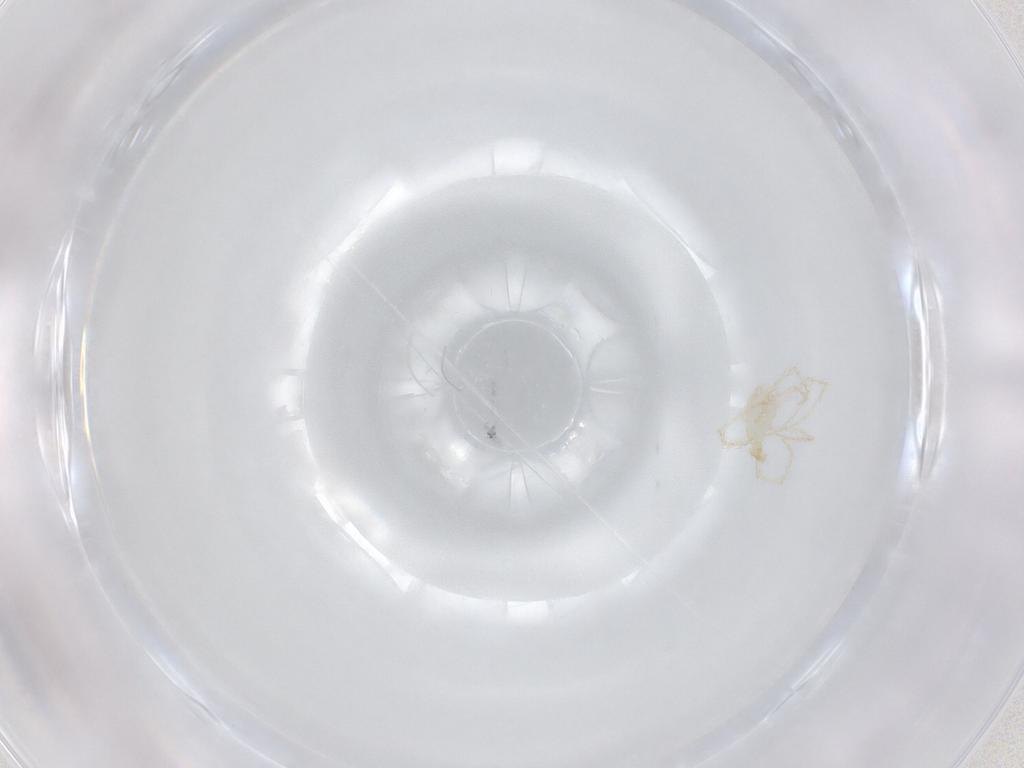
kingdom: Animalia
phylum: Arthropoda
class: Arachnida
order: Trombidiformes
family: Erythraeidae
